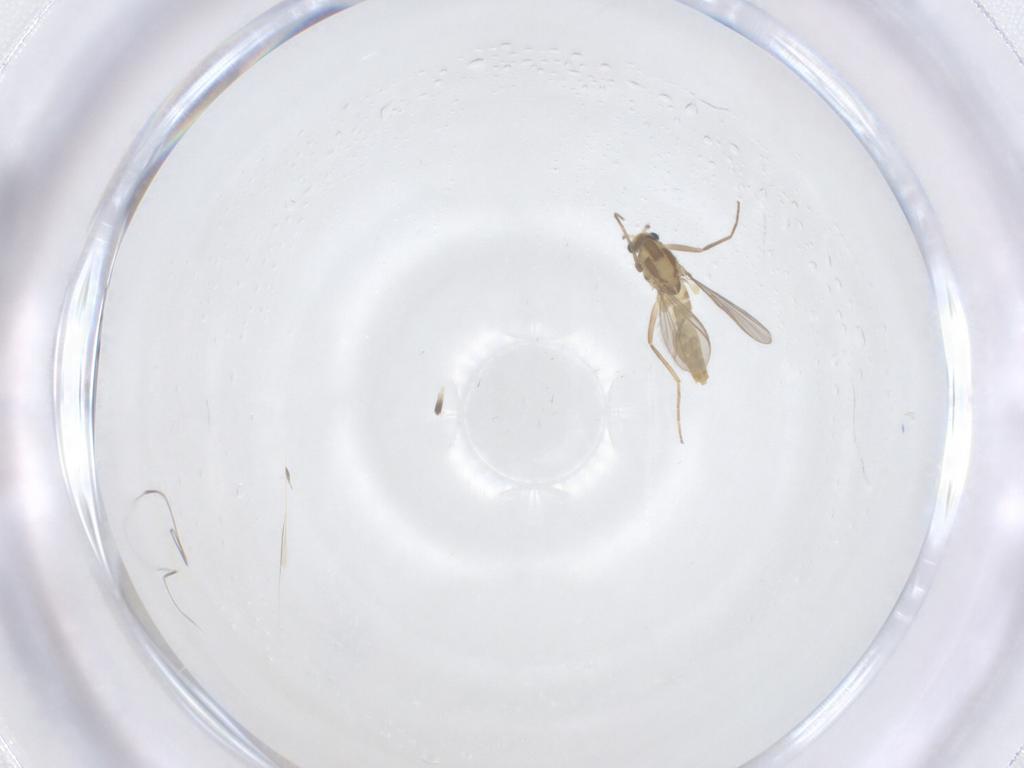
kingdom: Animalia
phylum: Arthropoda
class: Insecta
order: Diptera
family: Chironomidae
